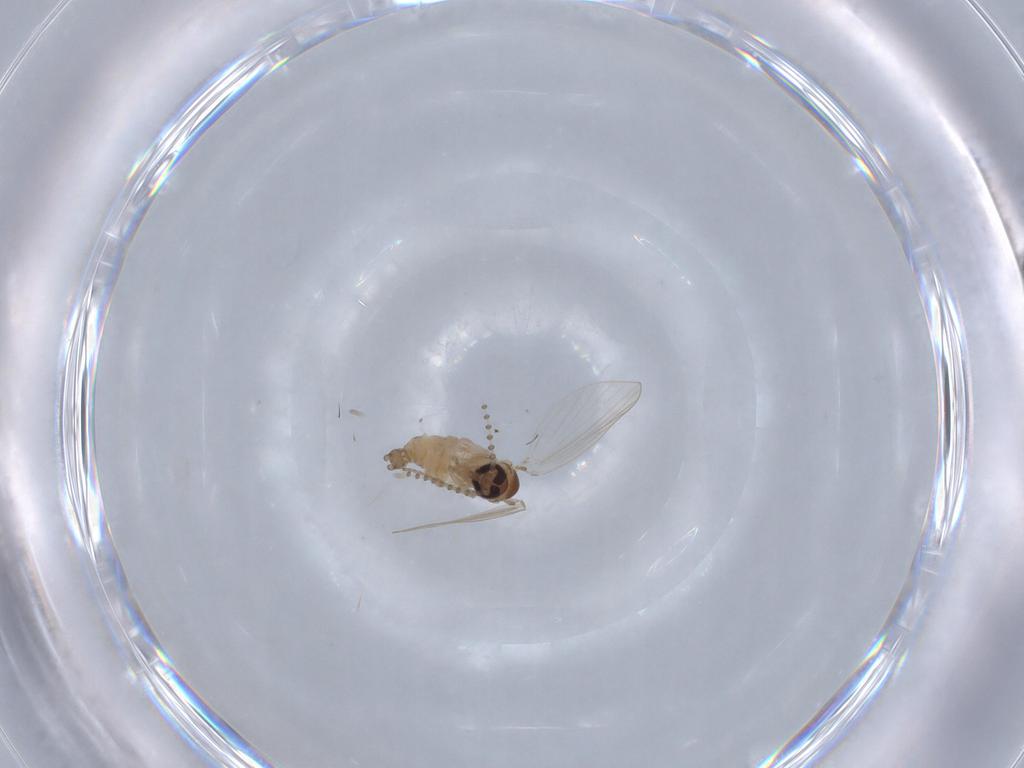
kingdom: Animalia
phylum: Arthropoda
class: Insecta
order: Diptera
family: Psychodidae
